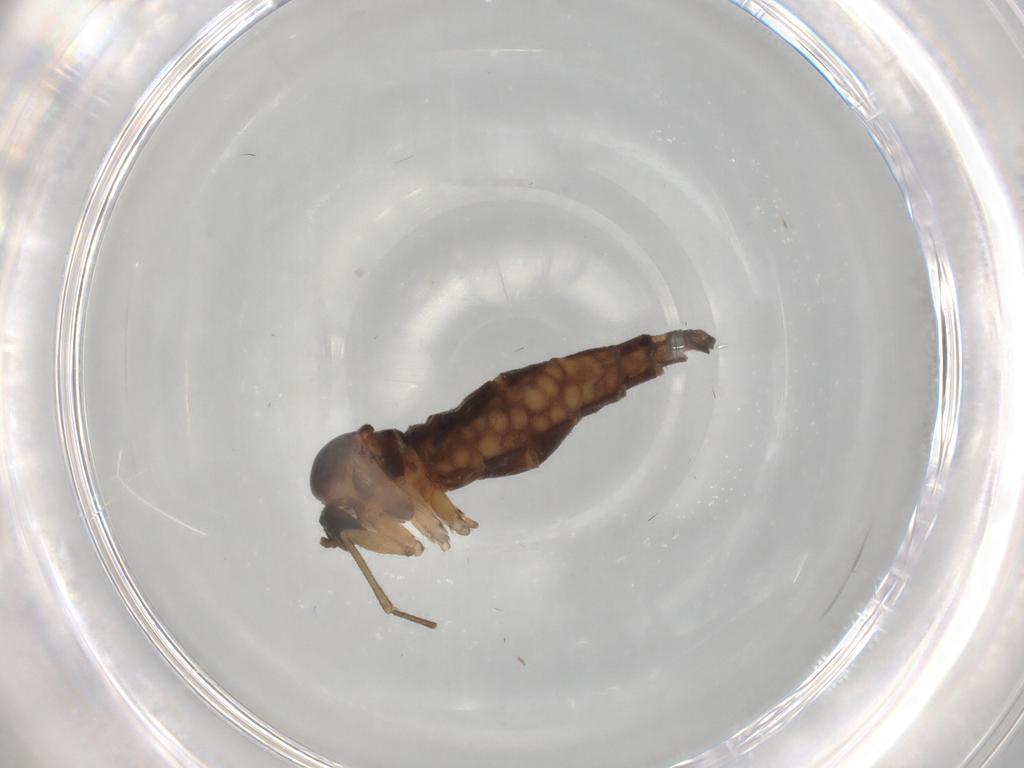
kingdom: Animalia
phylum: Arthropoda
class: Insecta
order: Diptera
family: Sciaridae
